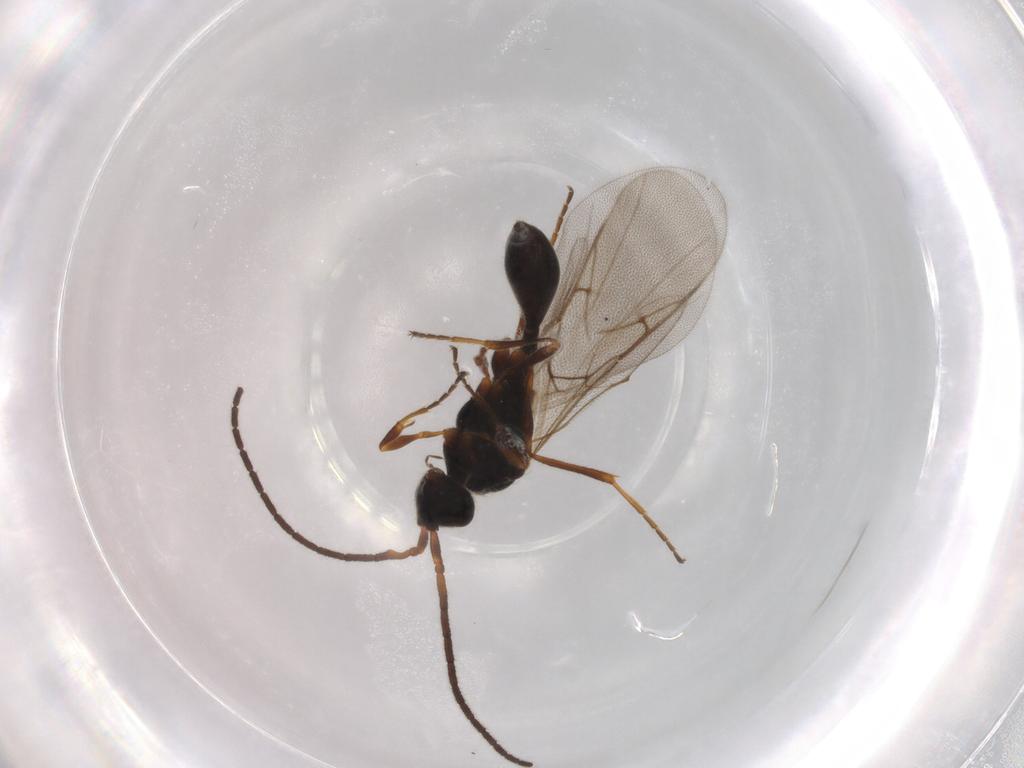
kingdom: Animalia
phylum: Arthropoda
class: Insecta
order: Hymenoptera
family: Diapriidae
